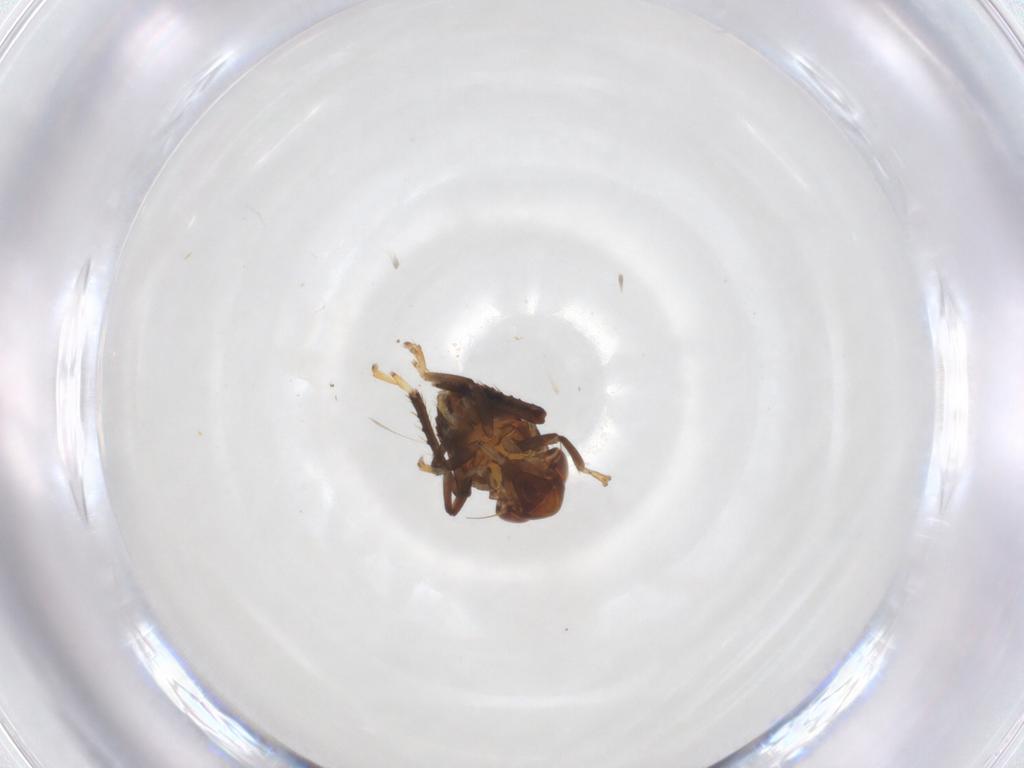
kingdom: Animalia
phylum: Arthropoda
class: Insecta
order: Hemiptera
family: Cicadellidae
